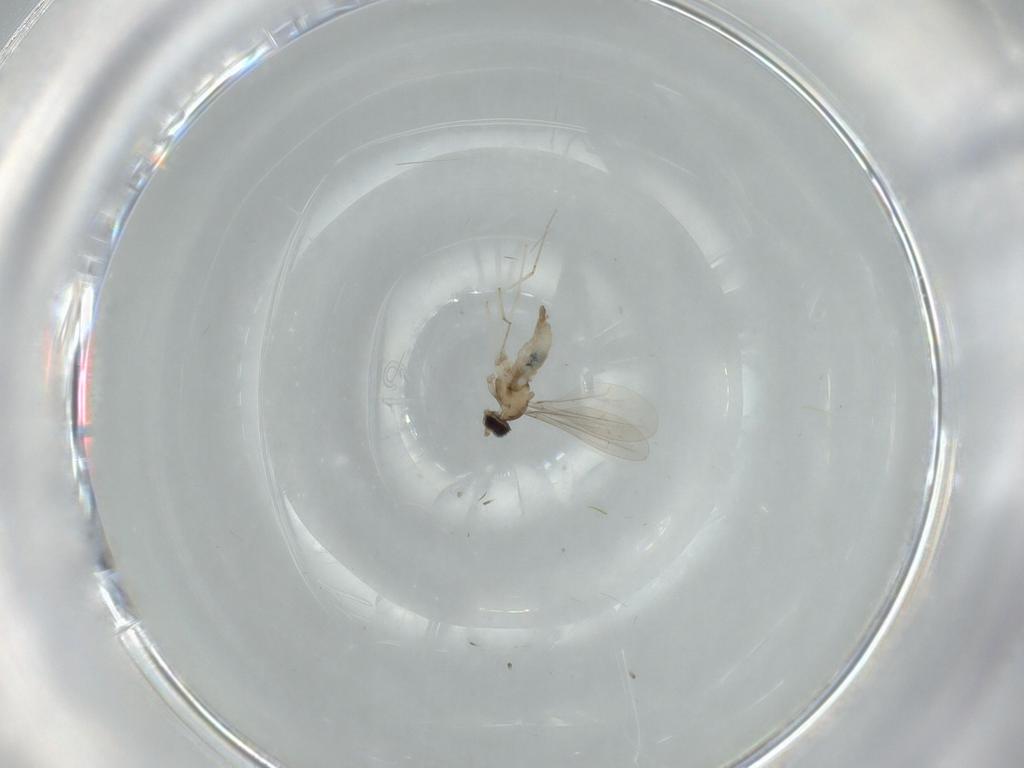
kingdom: Animalia
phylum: Arthropoda
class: Insecta
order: Diptera
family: Cecidomyiidae
